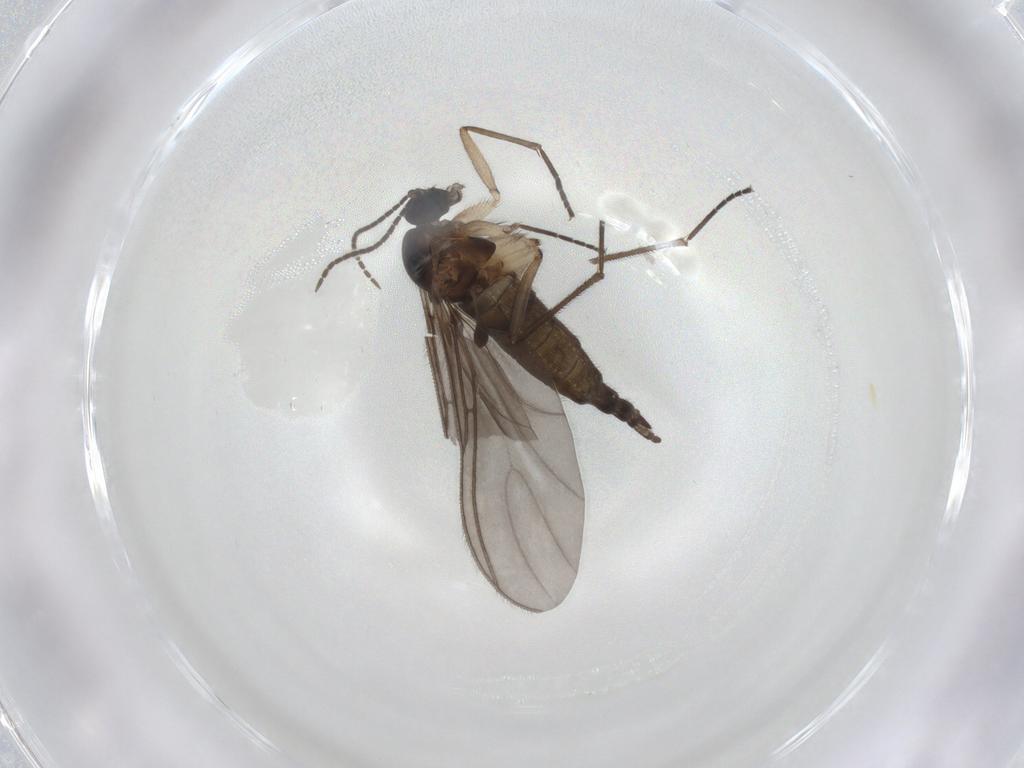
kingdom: Animalia
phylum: Arthropoda
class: Insecta
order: Diptera
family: Sciaridae
